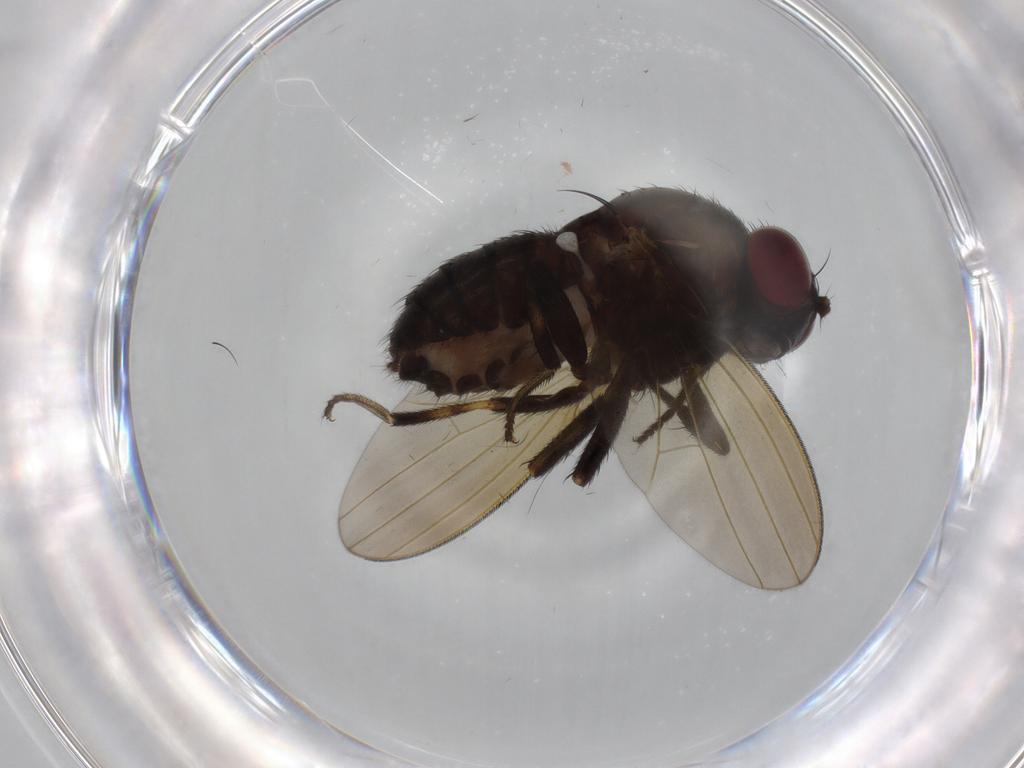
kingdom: Animalia
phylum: Arthropoda
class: Insecta
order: Diptera
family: Lauxaniidae
